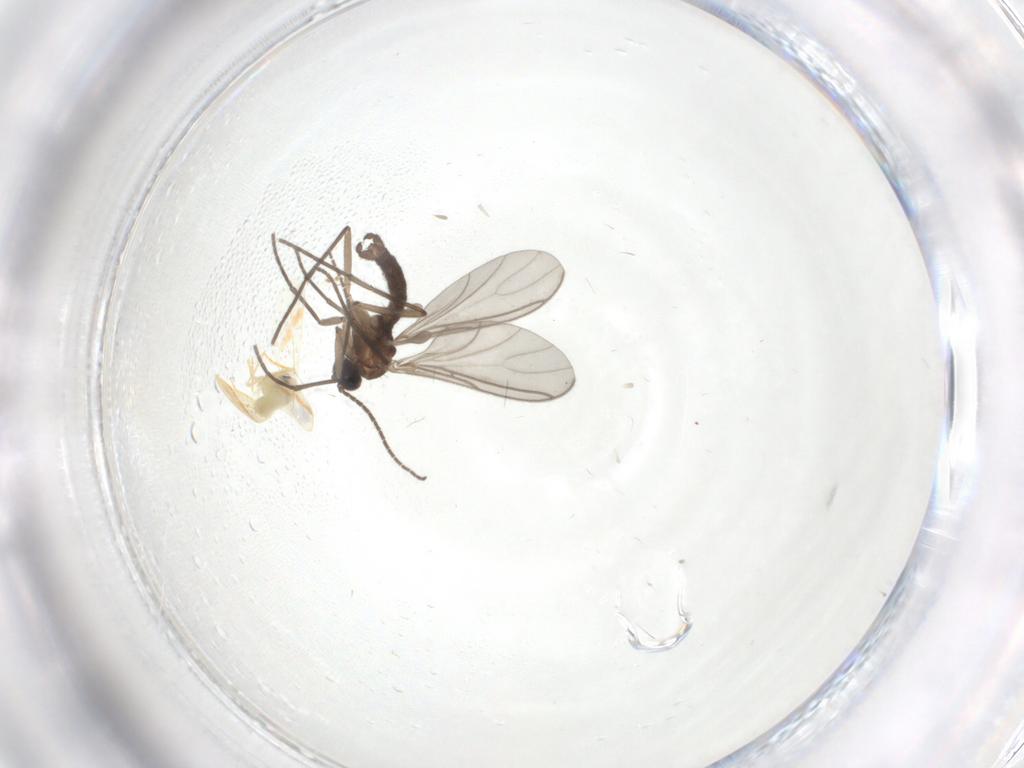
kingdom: Animalia
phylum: Arthropoda
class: Insecta
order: Hemiptera
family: Aleyrodidae
